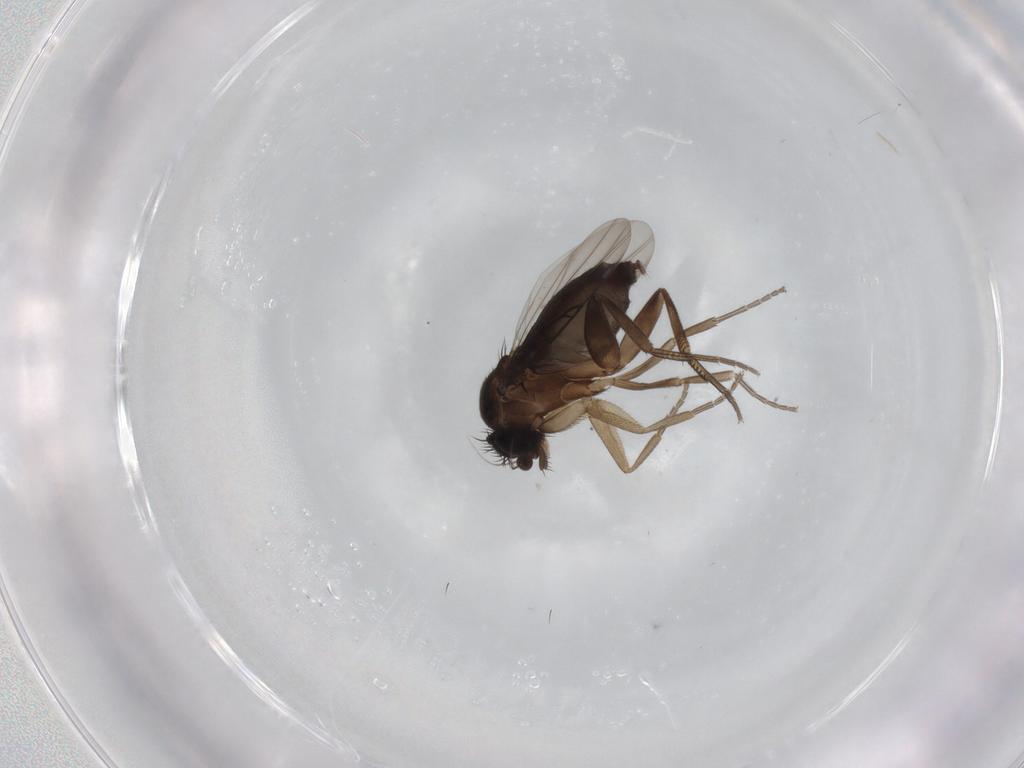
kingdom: Animalia
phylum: Arthropoda
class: Insecta
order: Diptera
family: Phoridae
